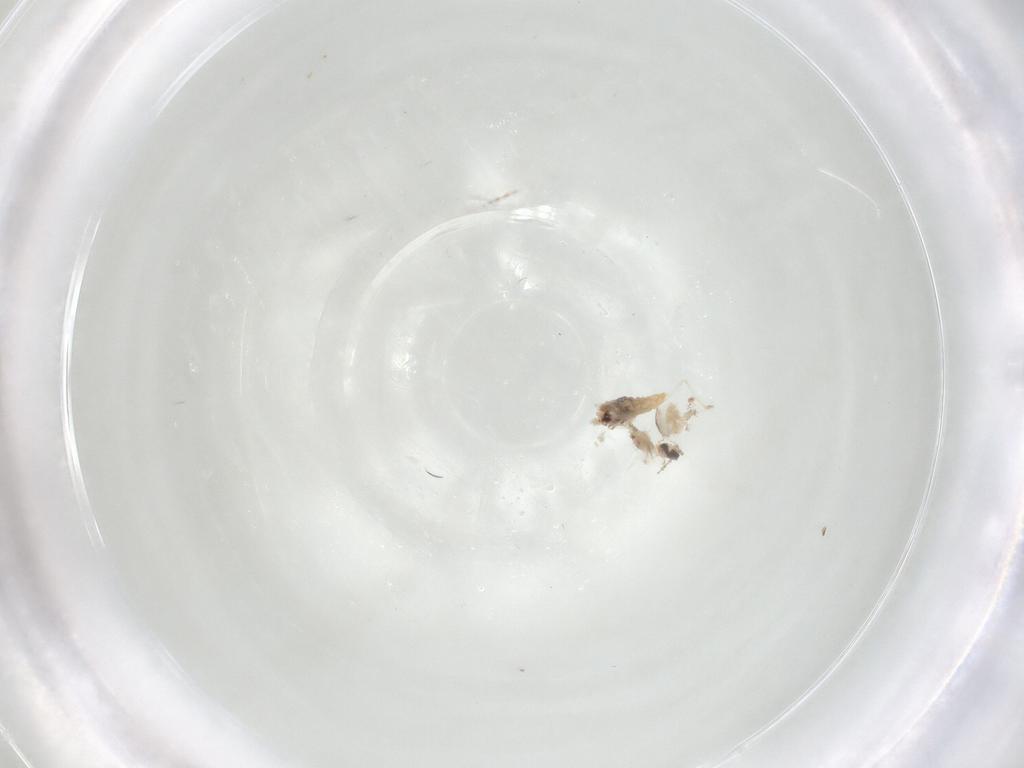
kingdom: Animalia
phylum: Arthropoda
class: Insecta
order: Diptera
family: Cecidomyiidae
